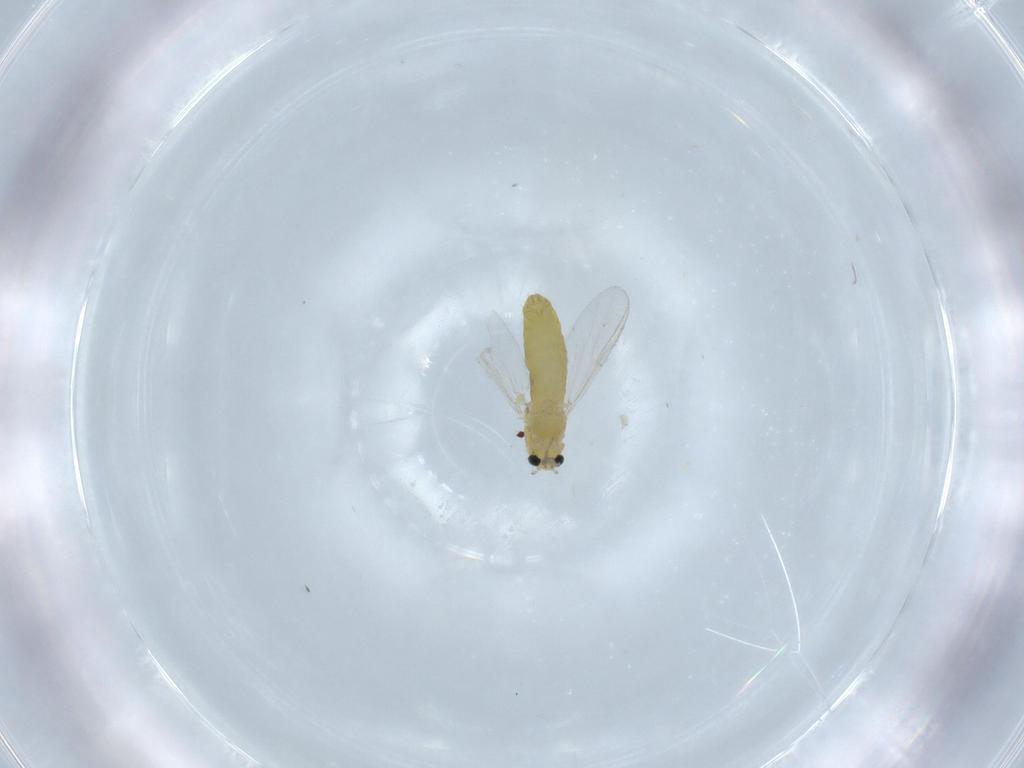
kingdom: Animalia
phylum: Arthropoda
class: Insecta
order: Diptera
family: Chironomidae
